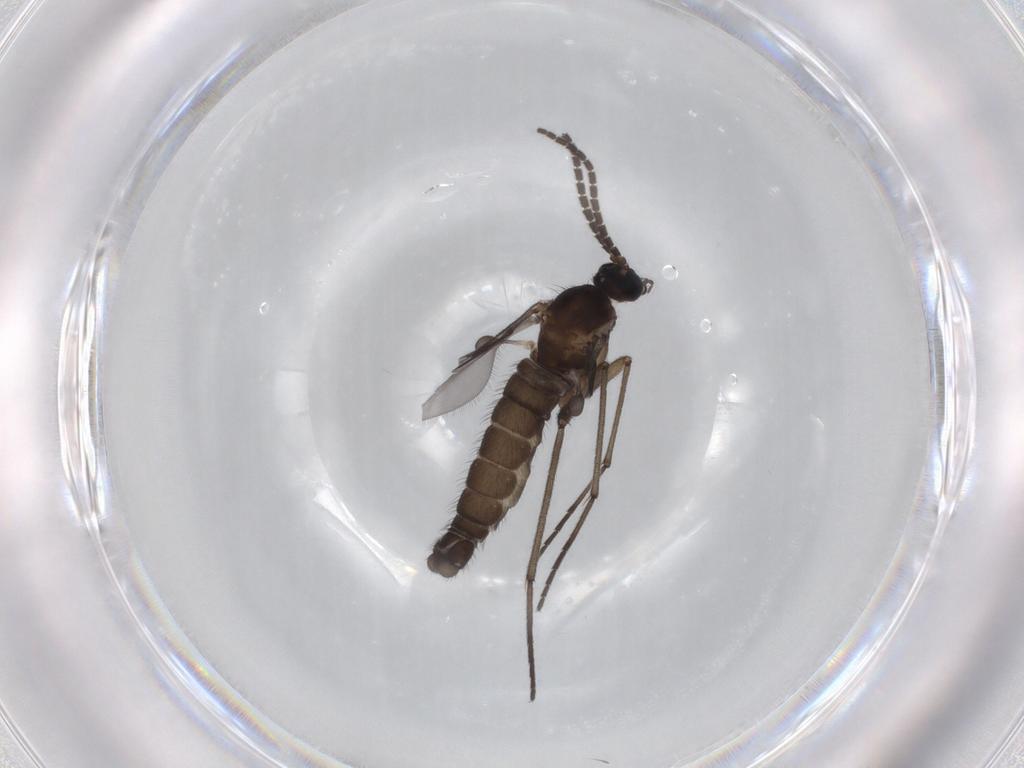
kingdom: Animalia
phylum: Arthropoda
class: Insecta
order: Diptera
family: Sciaridae
